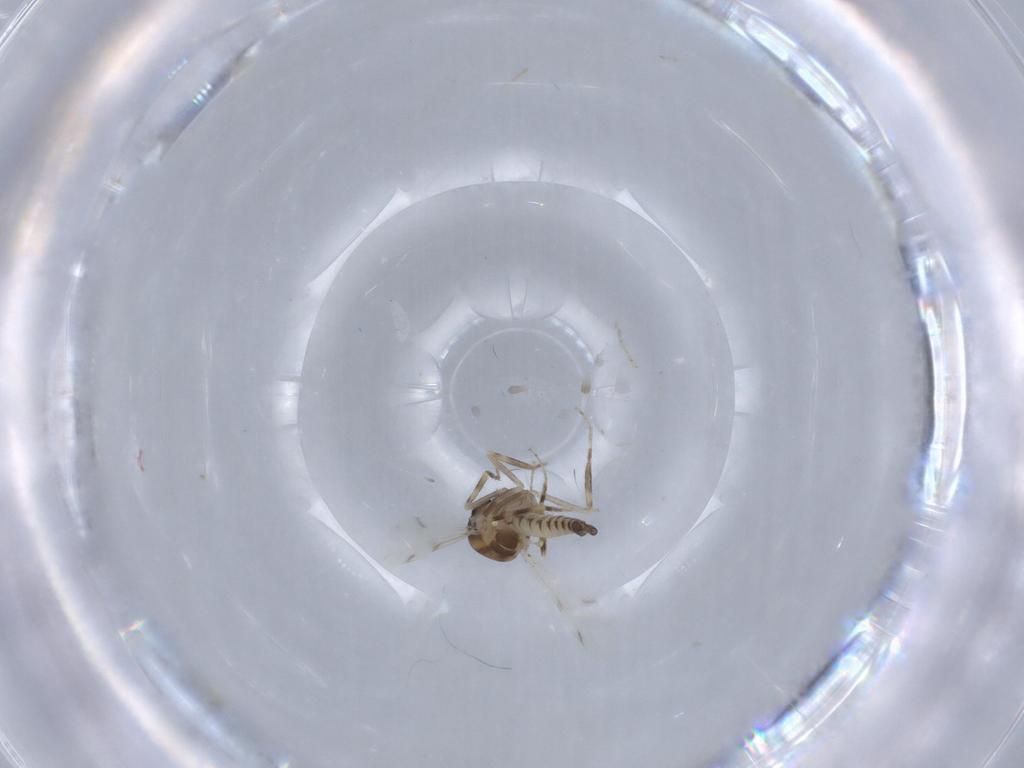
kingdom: Animalia
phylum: Arthropoda
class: Insecta
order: Diptera
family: Ceratopogonidae
